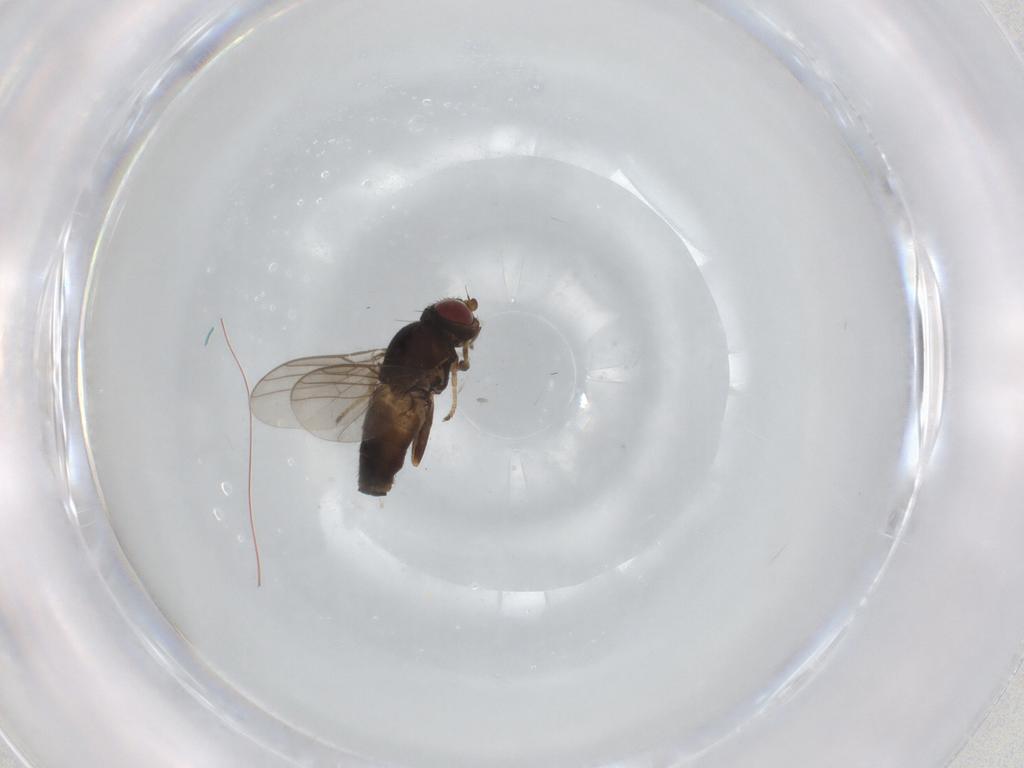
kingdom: Animalia
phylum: Arthropoda
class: Insecta
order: Diptera
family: Chloropidae
